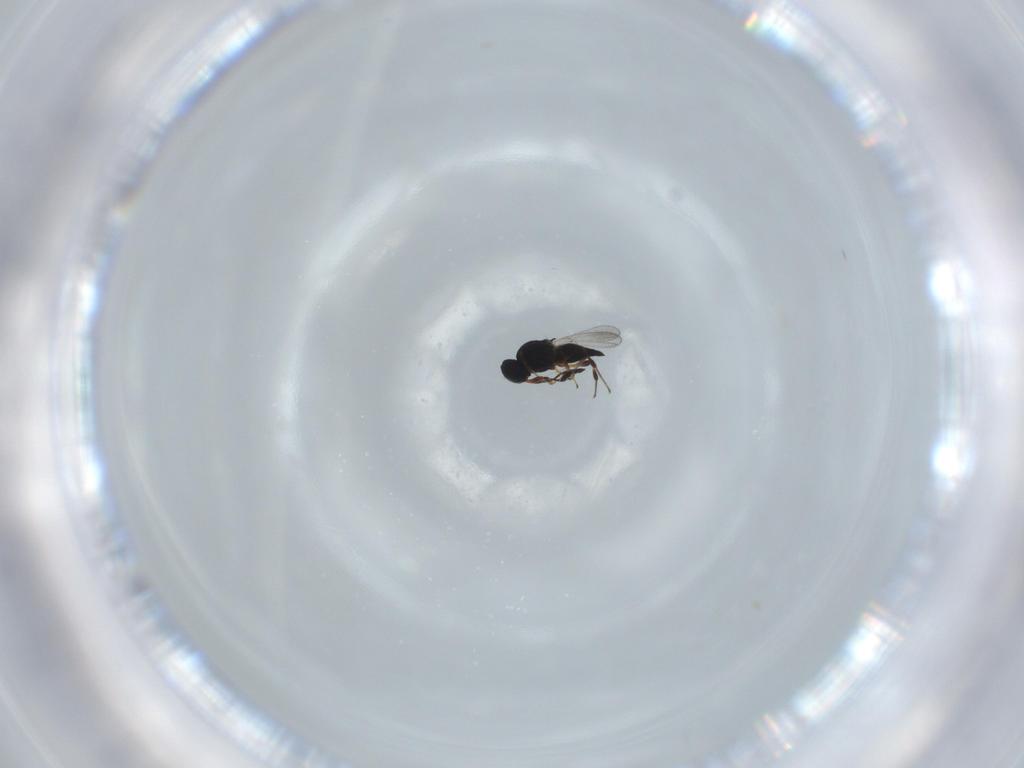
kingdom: Animalia
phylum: Arthropoda
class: Insecta
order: Hymenoptera
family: Platygastridae
